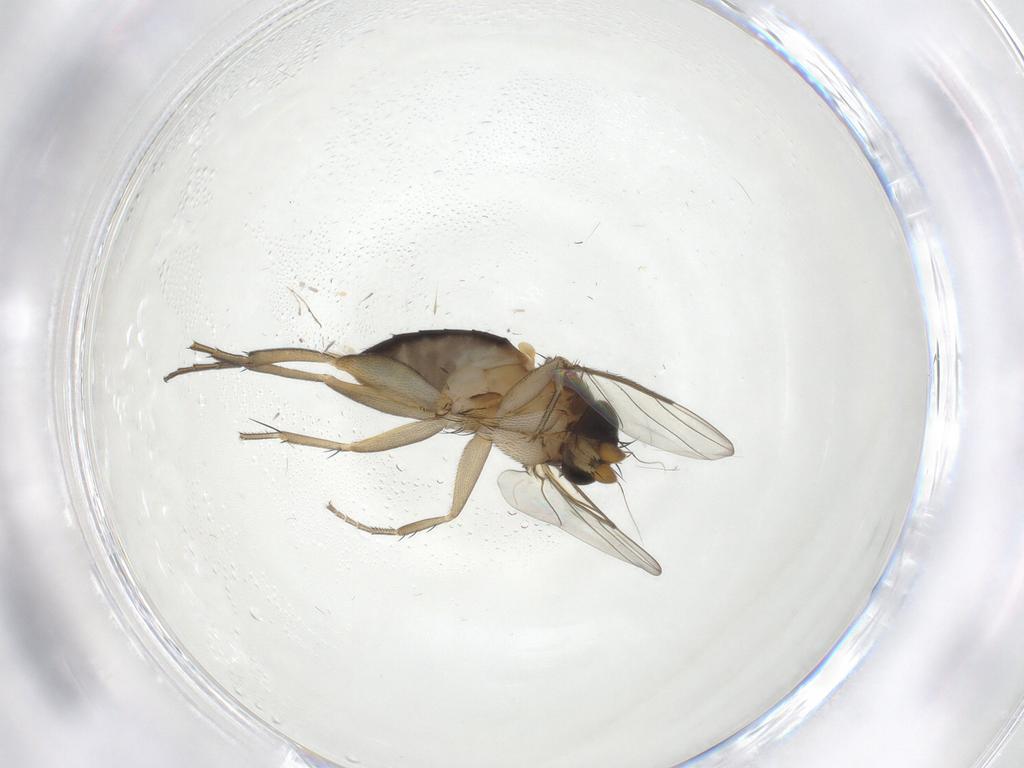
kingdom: Animalia
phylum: Arthropoda
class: Insecta
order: Diptera
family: Phoridae
